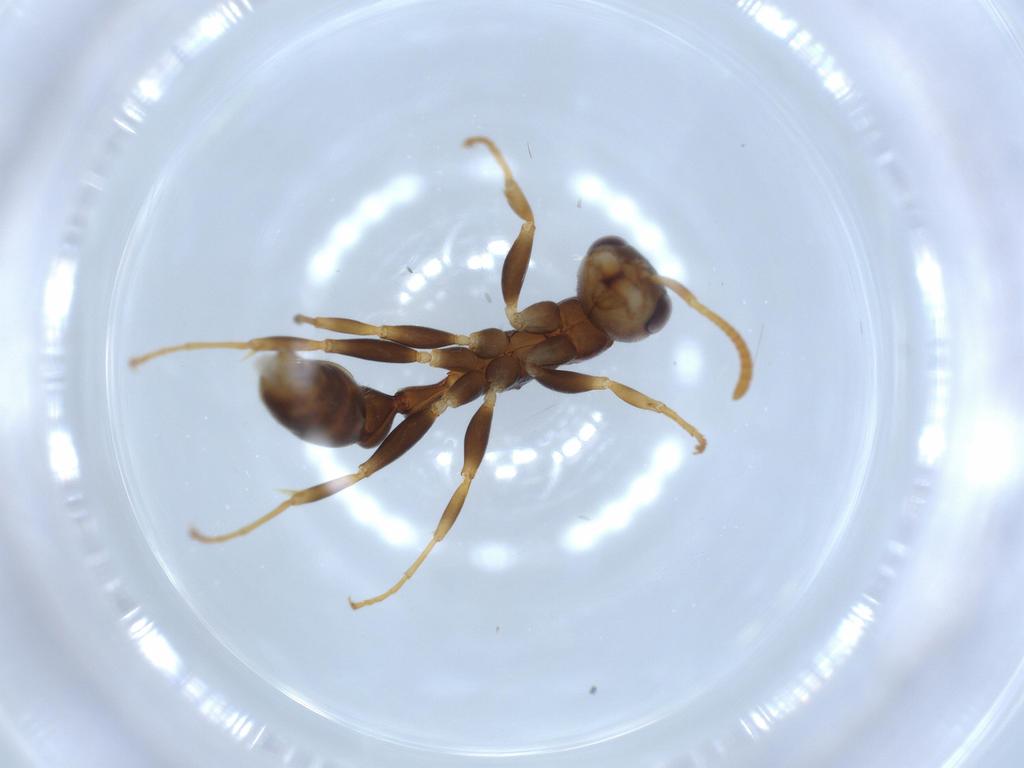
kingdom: Animalia
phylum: Arthropoda
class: Insecta
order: Hymenoptera
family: Formicidae
